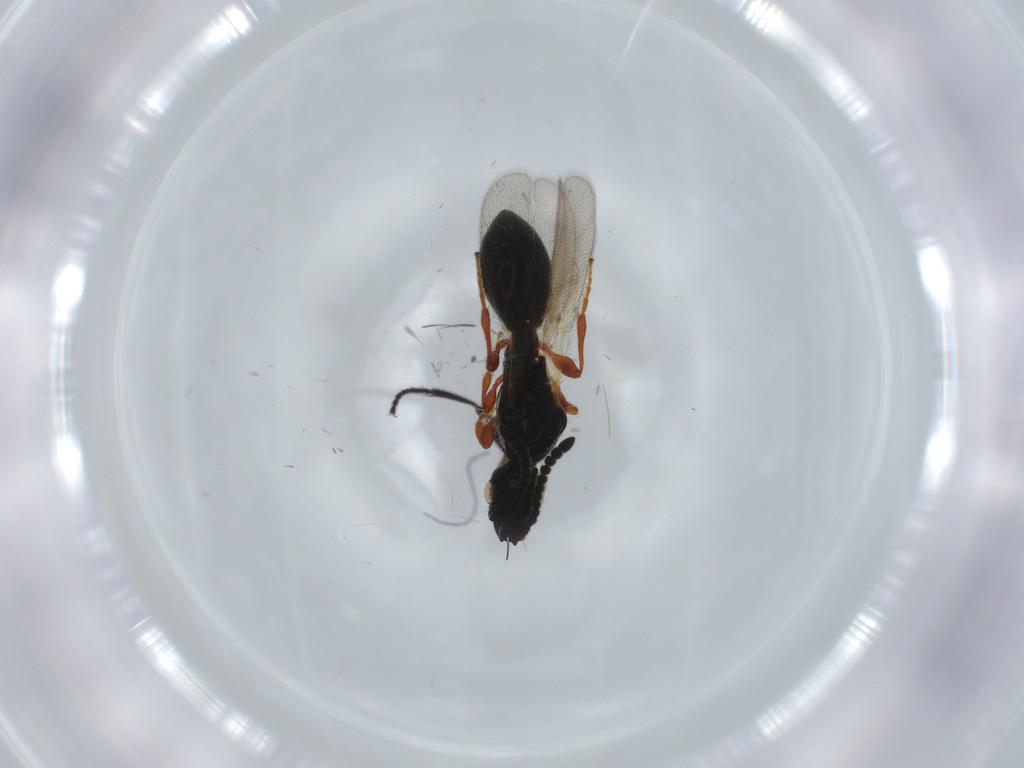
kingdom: Animalia
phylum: Arthropoda
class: Insecta
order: Hymenoptera
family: Diapriidae
